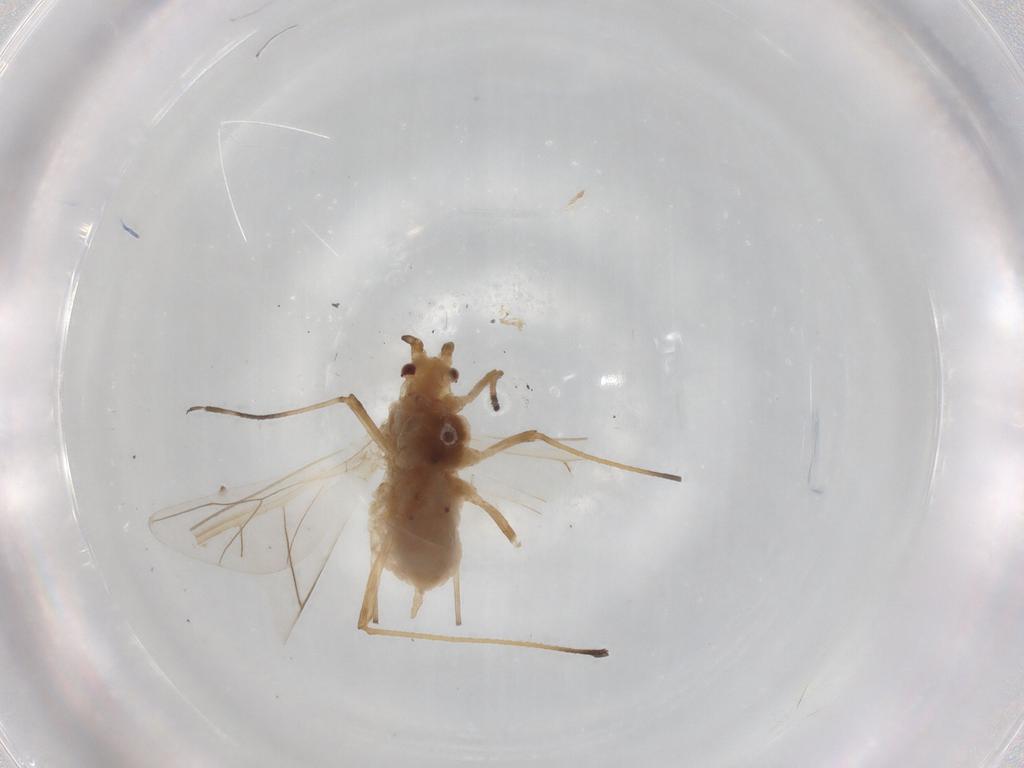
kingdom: Animalia
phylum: Arthropoda
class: Insecta
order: Hemiptera
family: Aphididae
